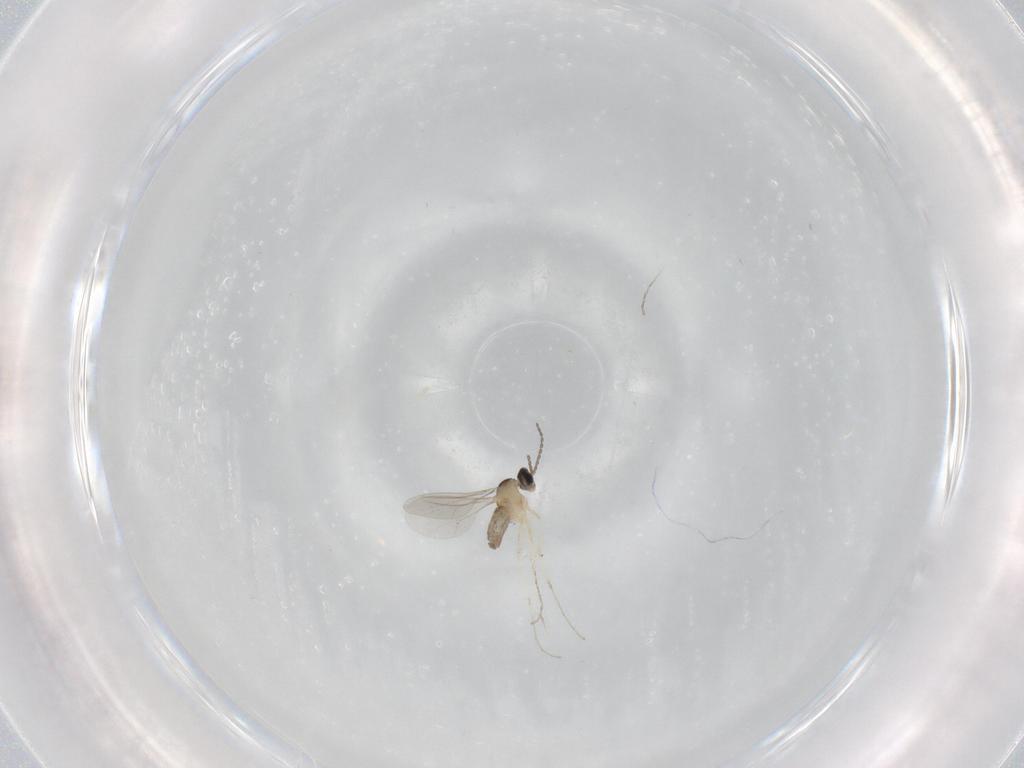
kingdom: Animalia
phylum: Arthropoda
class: Insecta
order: Diptera
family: Cecidomyiidae
